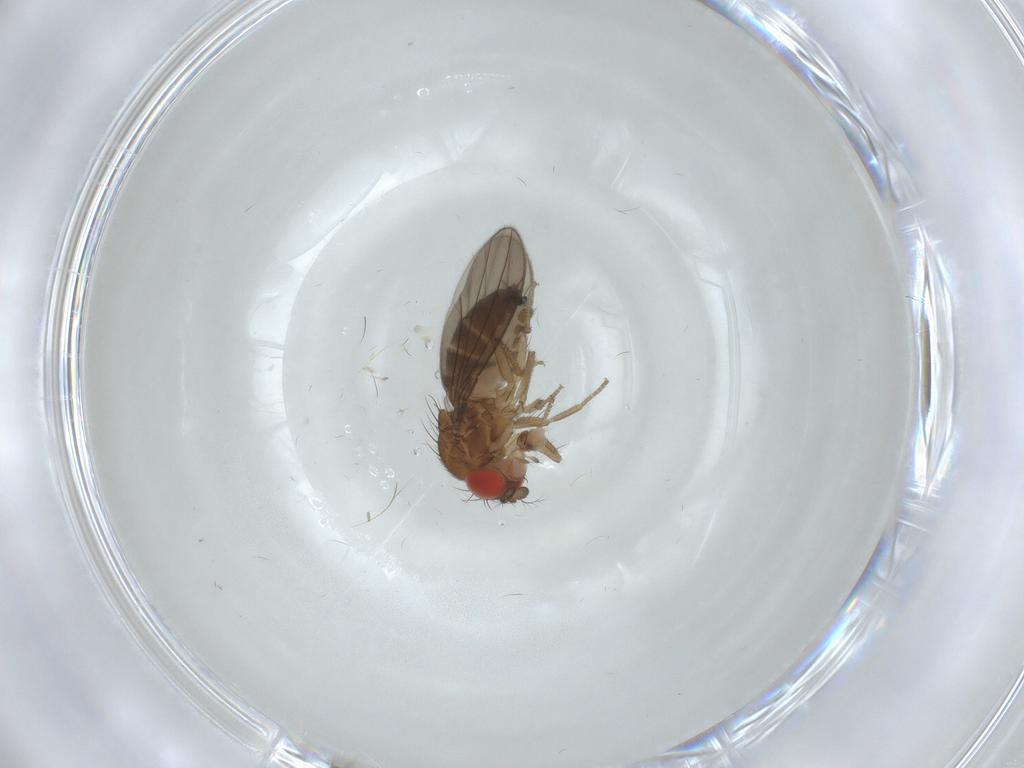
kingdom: Animalia
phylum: Arthropoda
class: Insecta
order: Diptera
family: Drosophilidae
